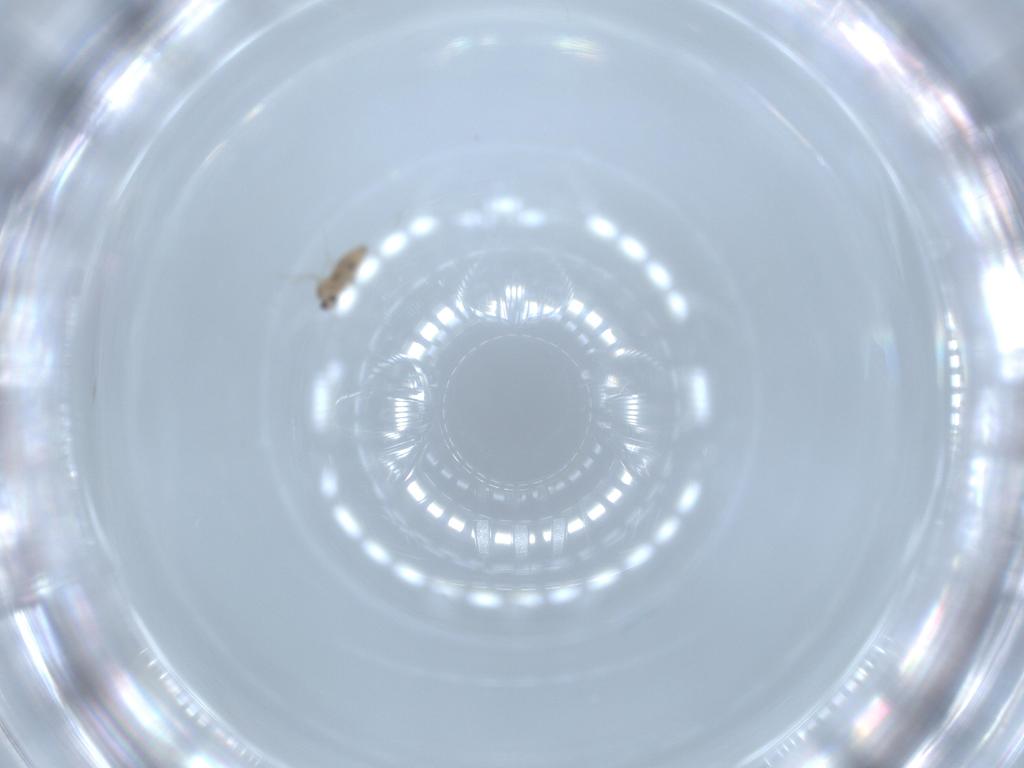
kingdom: Animalia
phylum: Arthropoda
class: Insecta
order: Diptera
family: Cecidomyiidae
